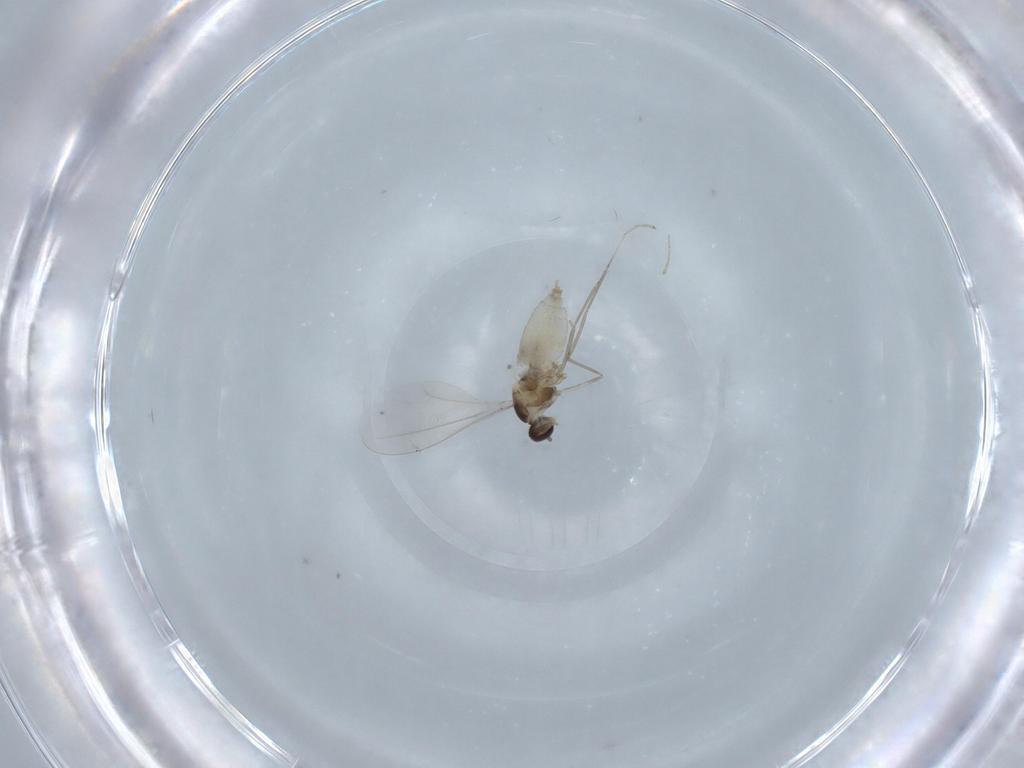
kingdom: Animalia
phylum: Arthropoda
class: Insecta
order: Diptera
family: Cecidomyiidae
